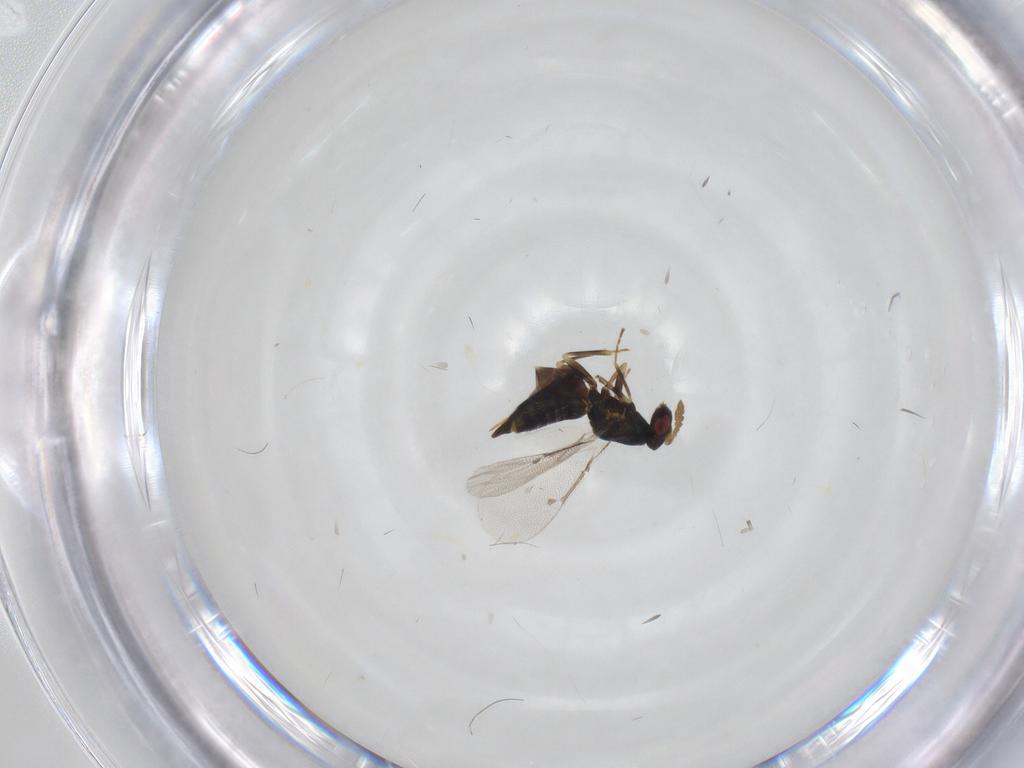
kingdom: Animalia
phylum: Arthropoda
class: Insecta
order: Hymenoptera
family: Eulophidae
